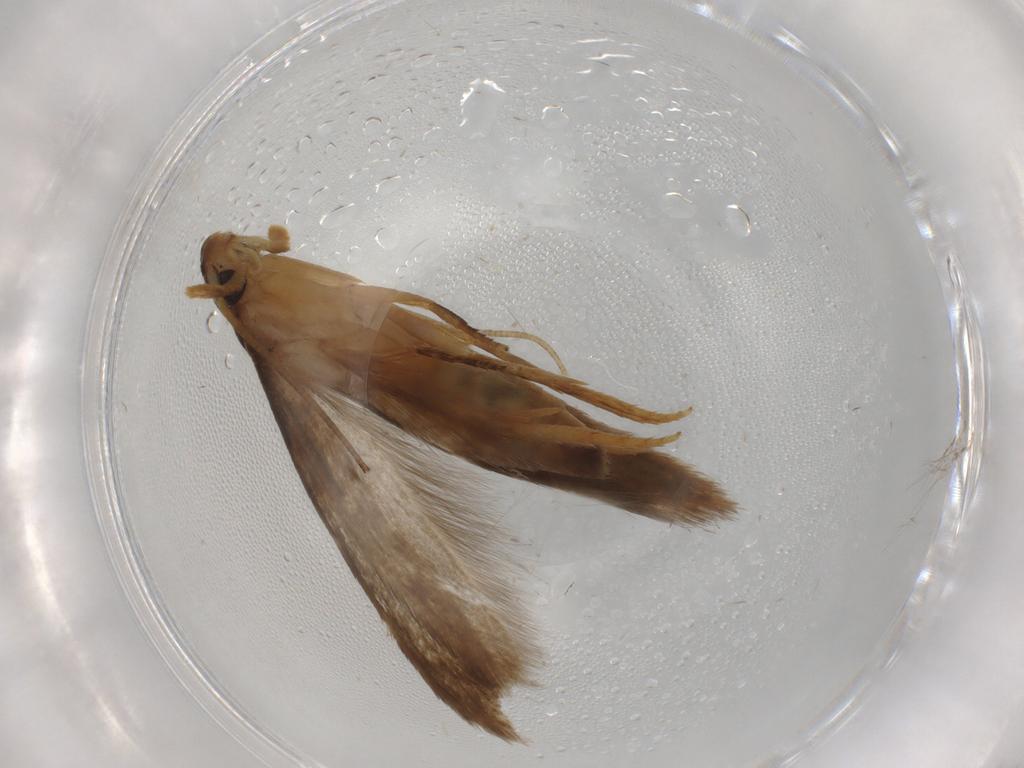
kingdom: Animalia
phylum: Arthropoda
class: Insecta
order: Lepidoptera
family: Tineidae
